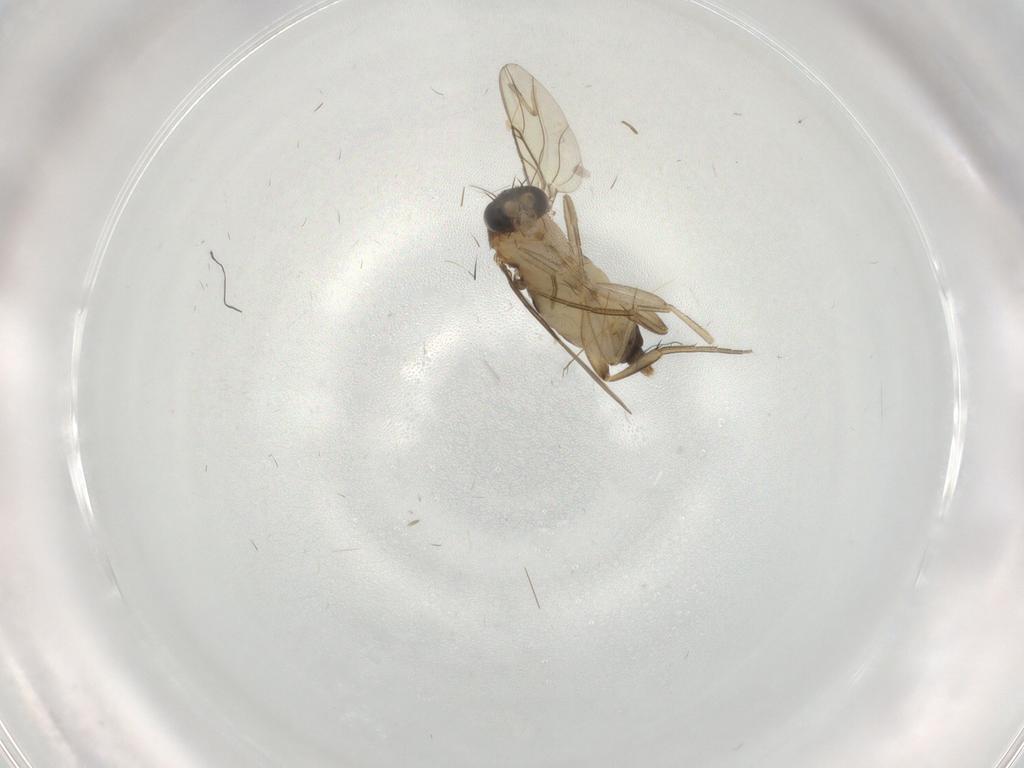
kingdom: Animalia
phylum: Arthropoda
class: Insecta
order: Diptera
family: Phoridae
